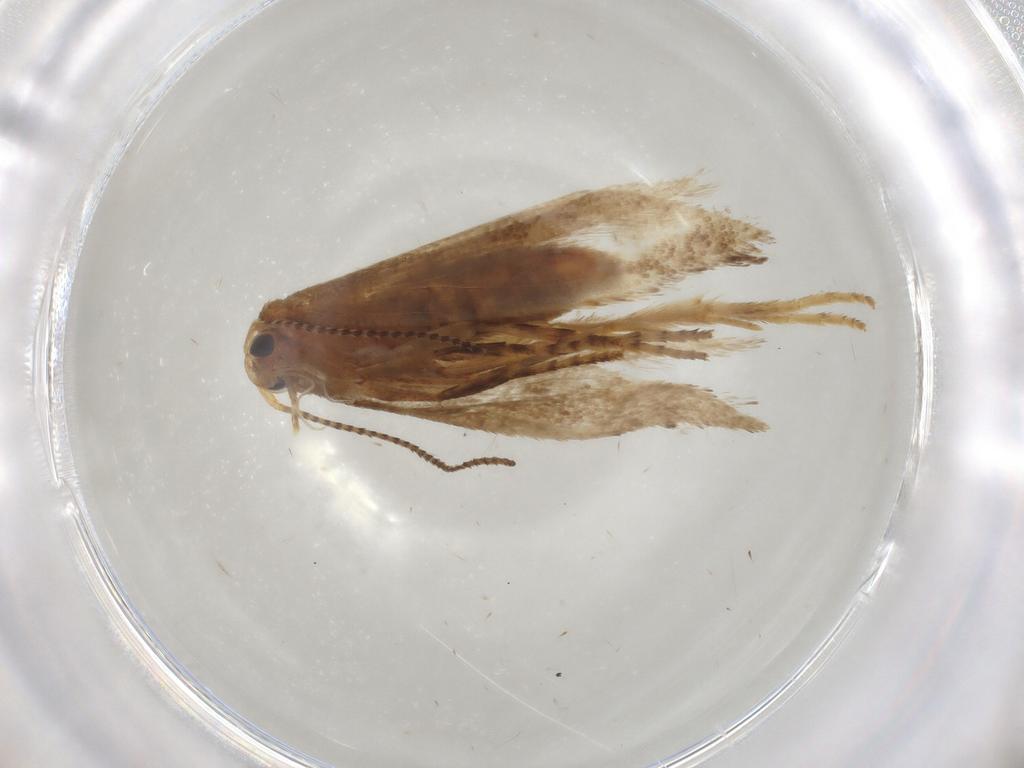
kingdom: Animalia
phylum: Arthropoda
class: Insecta
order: Lepidoptera
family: Argyresthiidae
